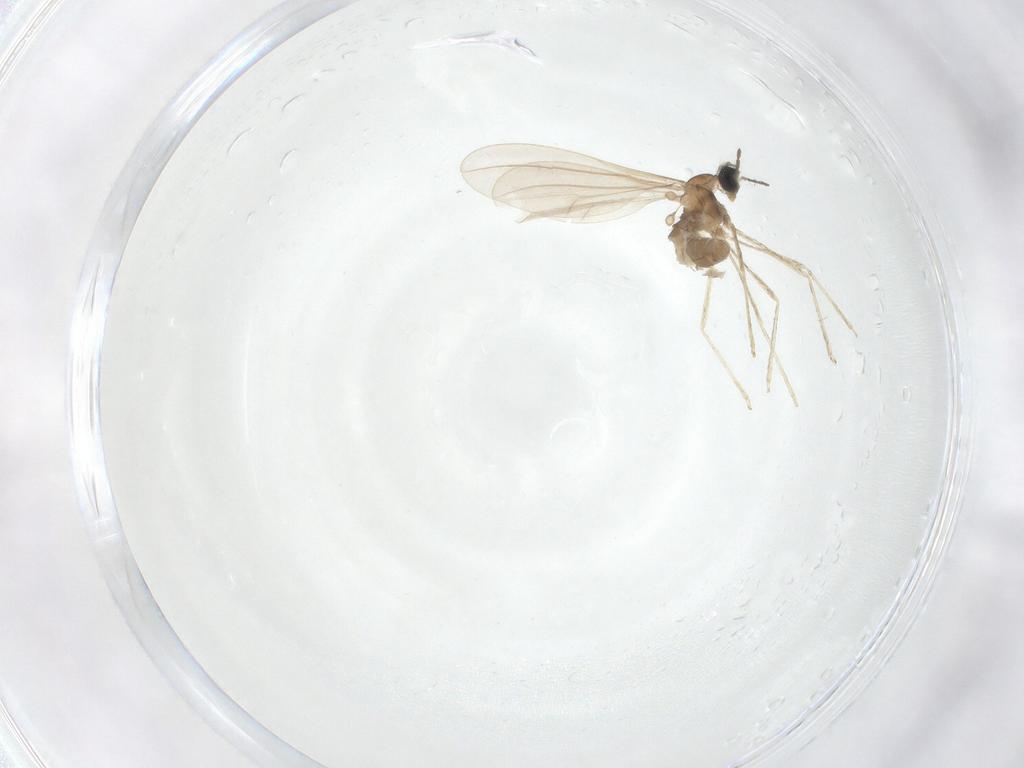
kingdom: Animalia
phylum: Arthropoda
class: Insecta
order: Diptera
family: Cecidomyiidae
